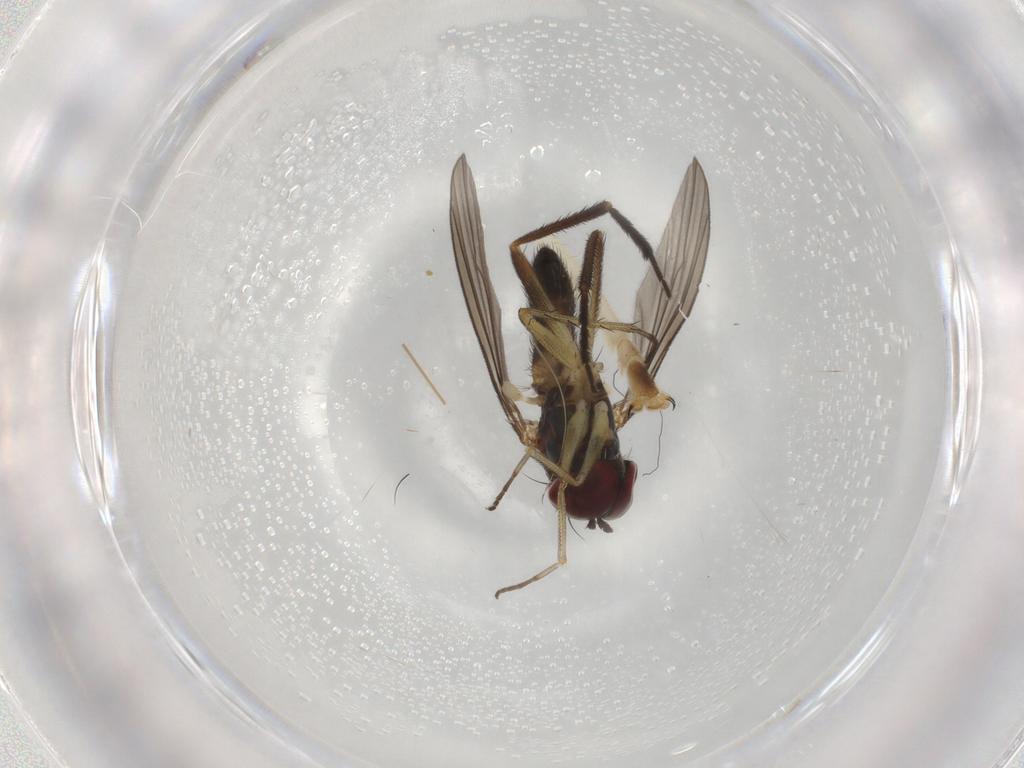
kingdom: Animalia
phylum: Arthropoda
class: Insecta
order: Diptera
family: Dolichopodidae
